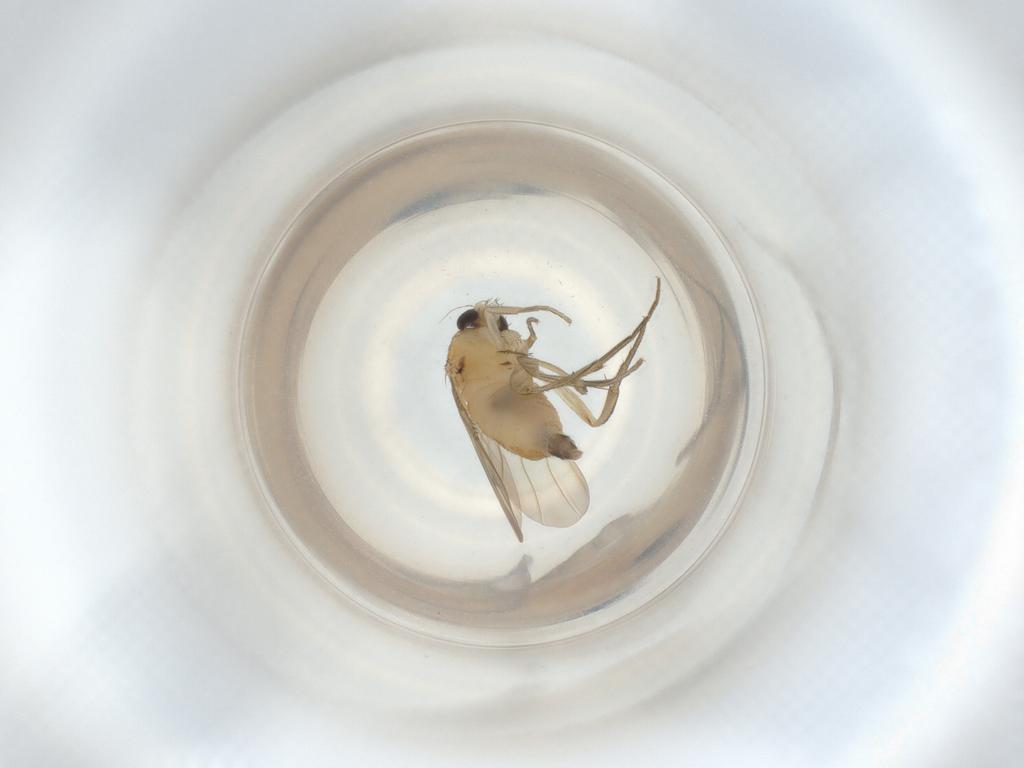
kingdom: Animalia
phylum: Arthropoda
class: Insecta
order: Diptera
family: Phoridae
